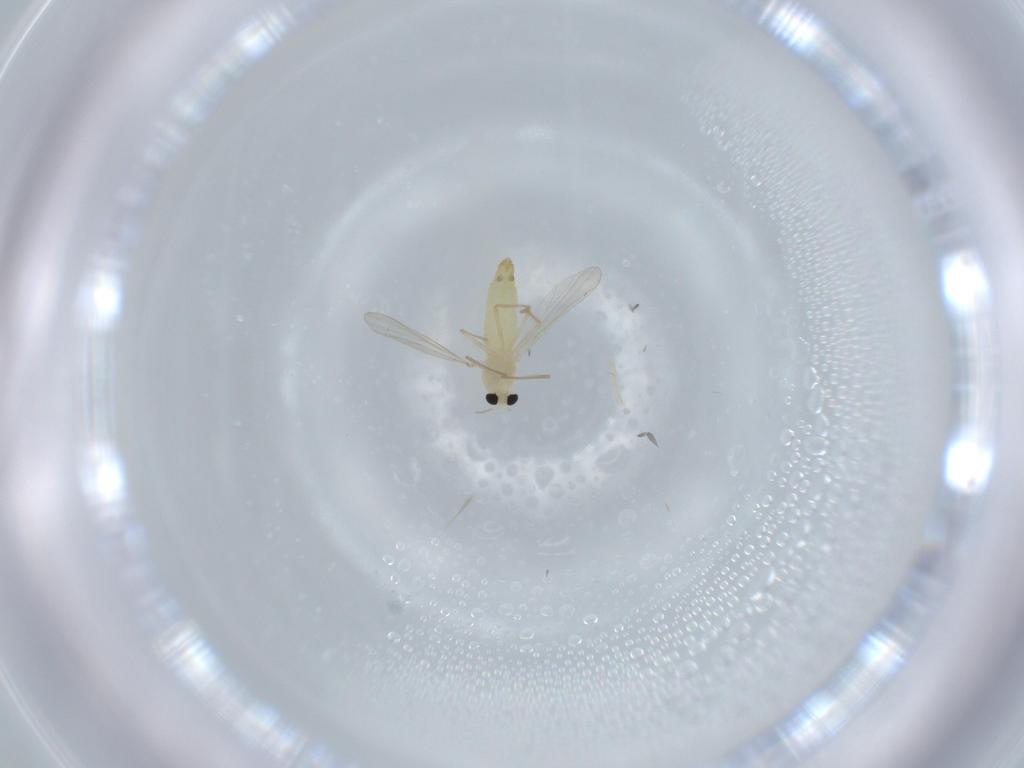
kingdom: Animalia
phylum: Arthropoda
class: Insecta
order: Diptera
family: Chironomidae
